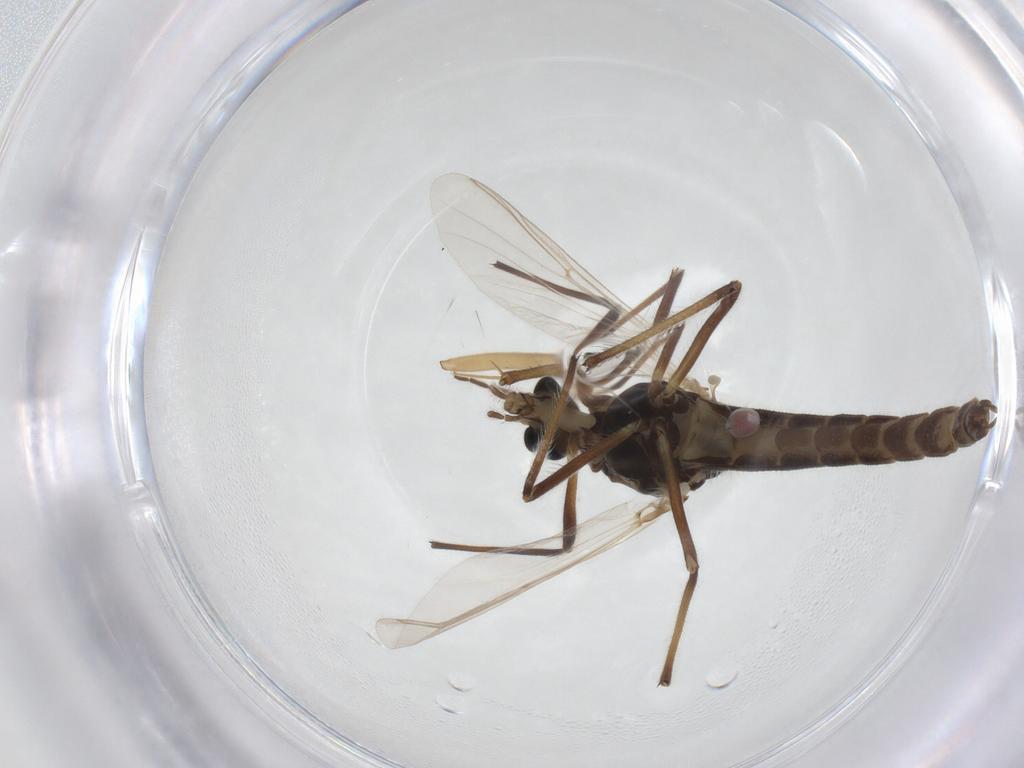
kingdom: Animalia
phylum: Arthropoda
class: Insecta
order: Diptera
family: Chironomidae
